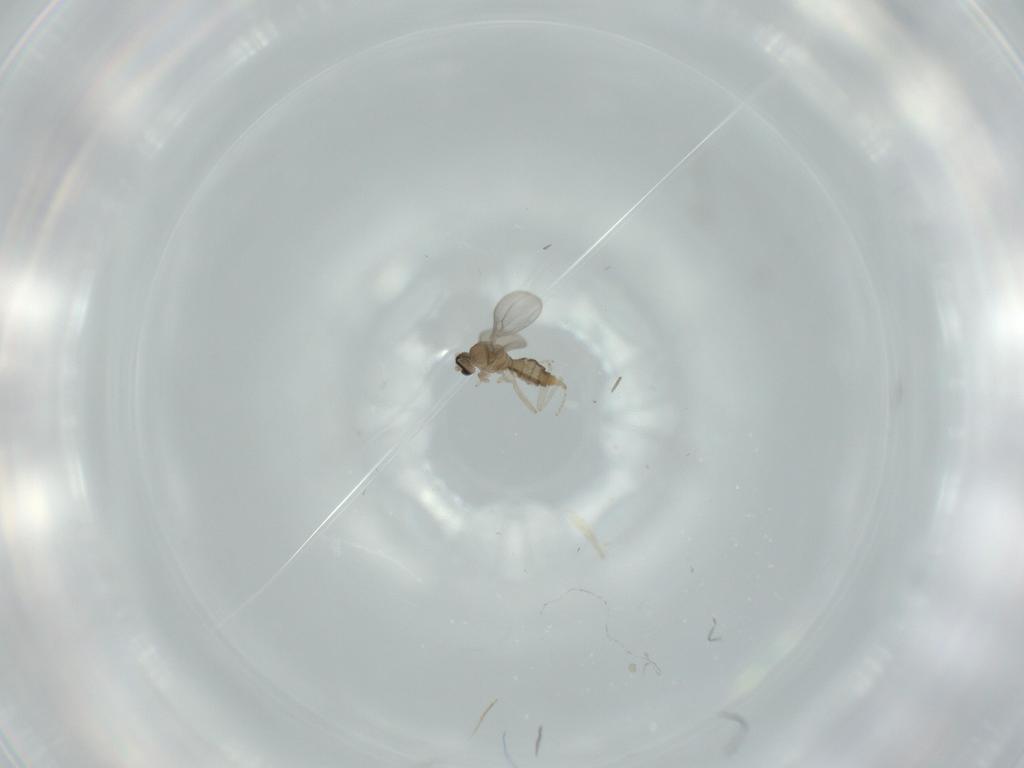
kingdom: Animalia
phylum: Arthropoda
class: Insecta
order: Diptera
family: Cecidomyiidae
